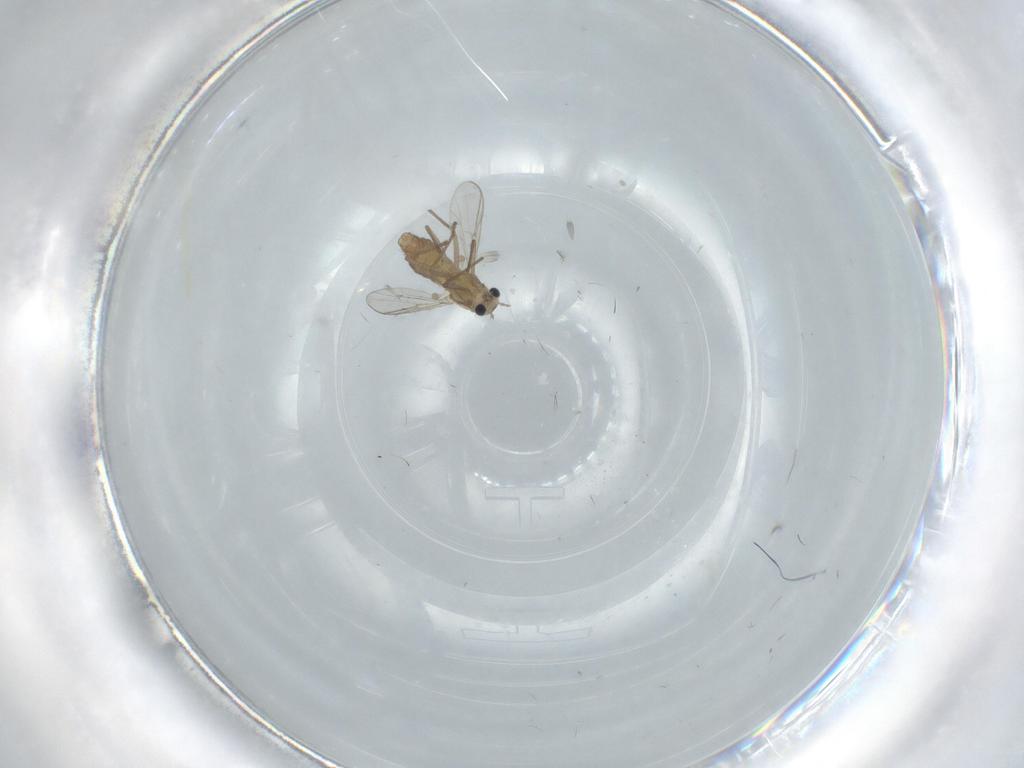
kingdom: Animalia
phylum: Arthropoda
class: Insecta
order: Diptera
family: Chironomidae
